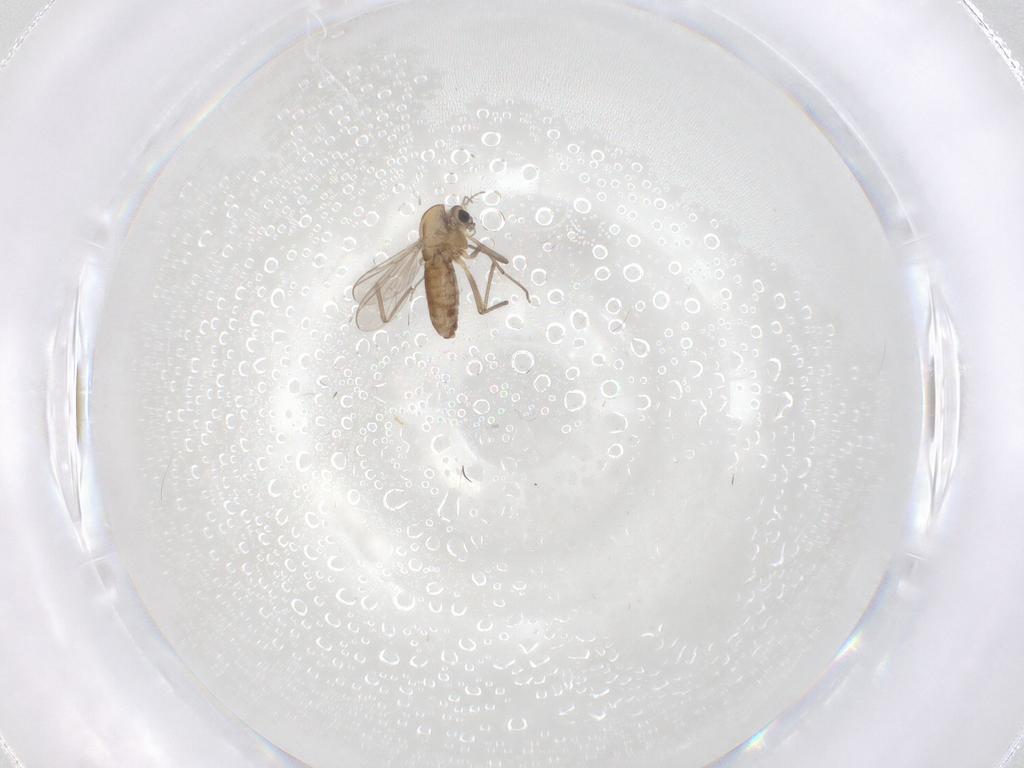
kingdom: Animalia
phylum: Arthropoda
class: Insecta
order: Diptera
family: Chironomidae
